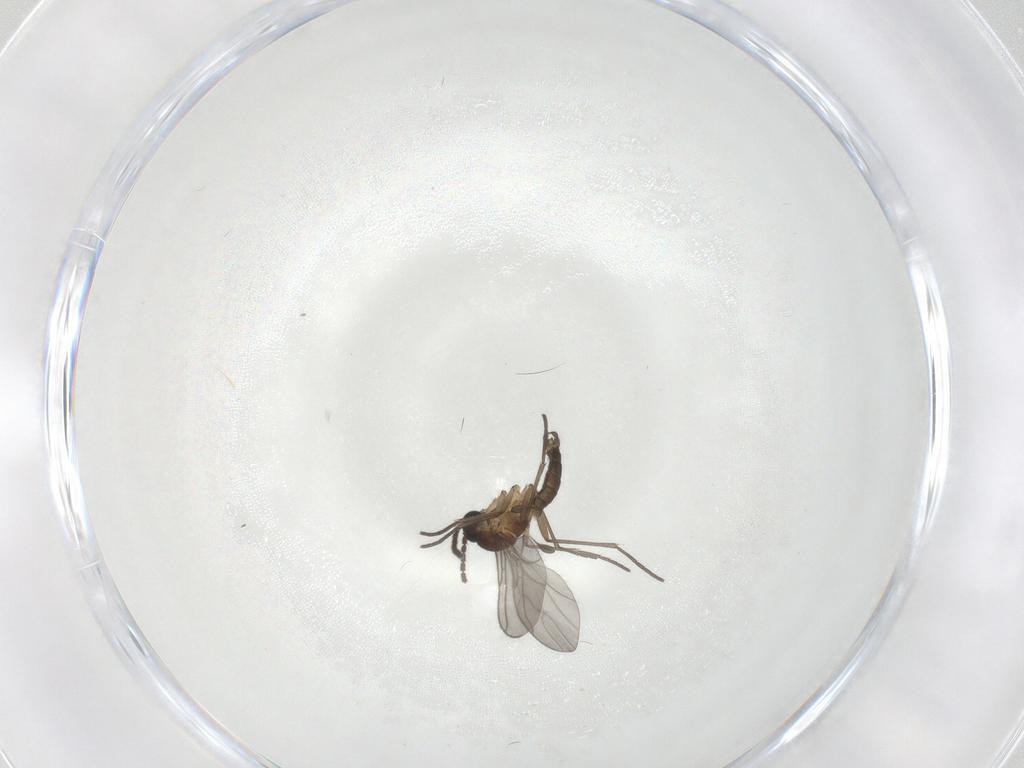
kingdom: Animalia
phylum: Arthropoda
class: Insecta
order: Diptera
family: Sciaridae
